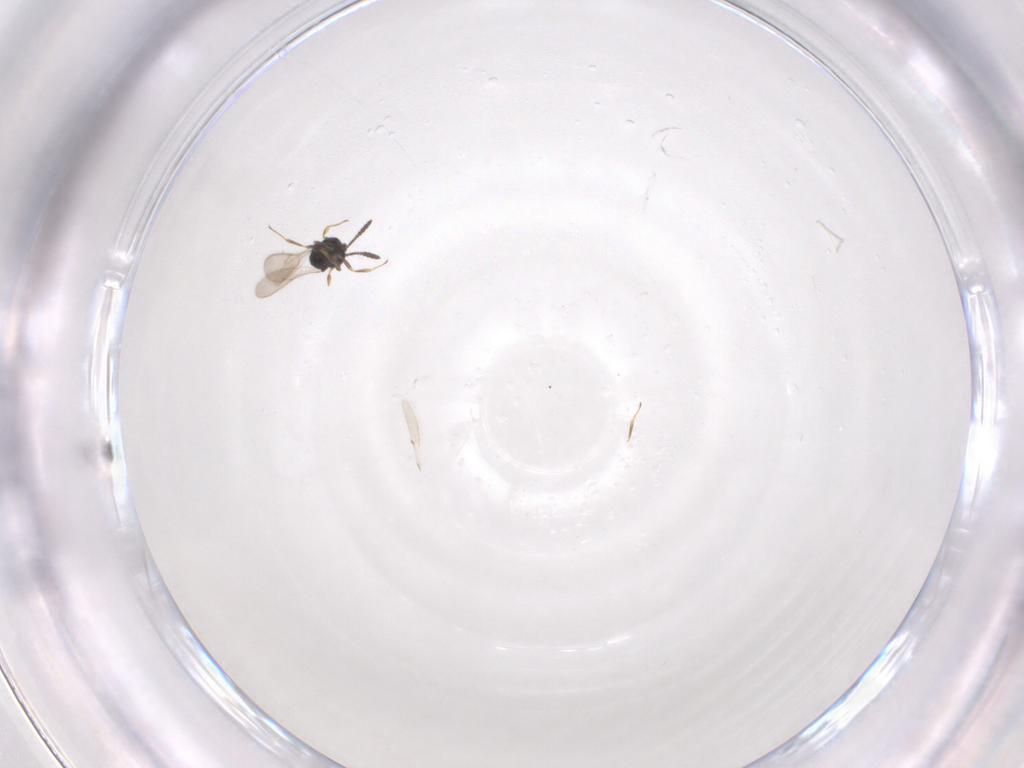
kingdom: Animalia
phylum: Arthropoda
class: Insecta
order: Hymenoptera
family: Scelionidae
